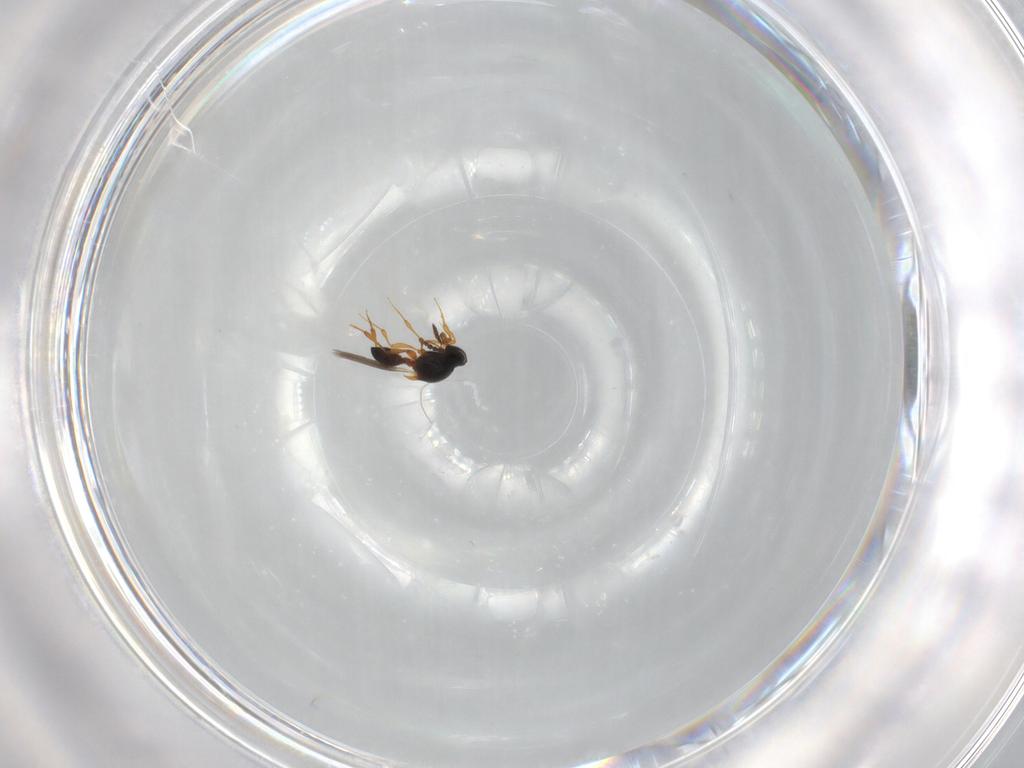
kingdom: Animalia
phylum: Arthropoda
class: Insecta
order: Hymenoptera
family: Platygastridae
